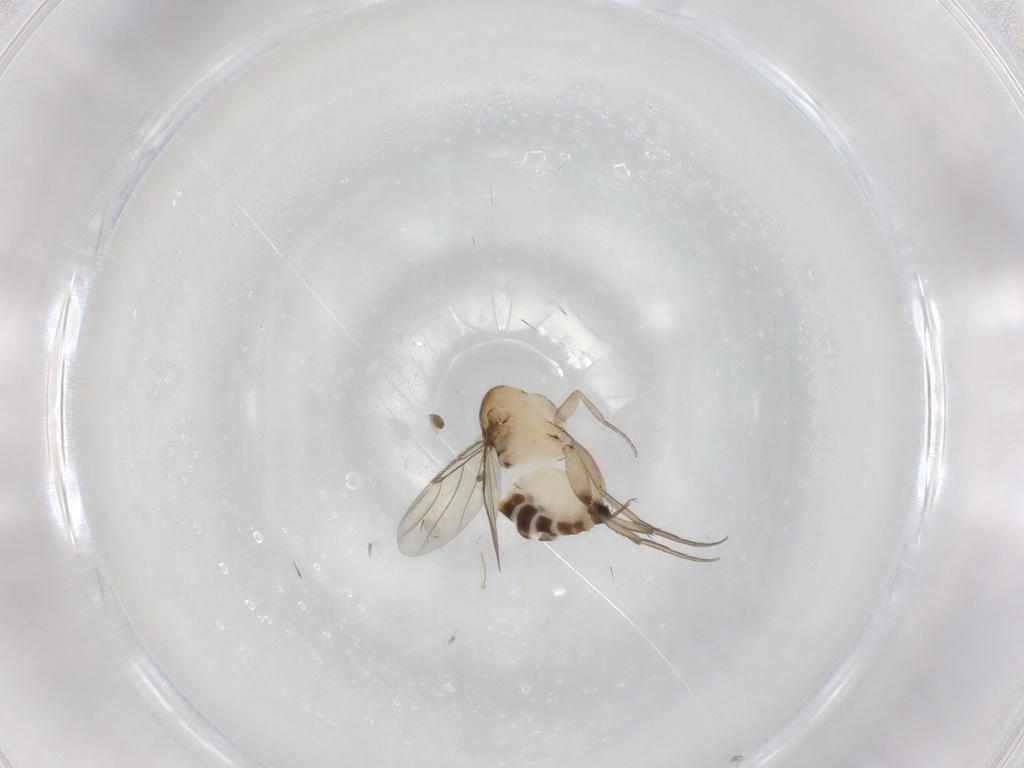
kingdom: Animalia
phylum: Arthropoda
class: Insecta
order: Diptera
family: Phoridae
